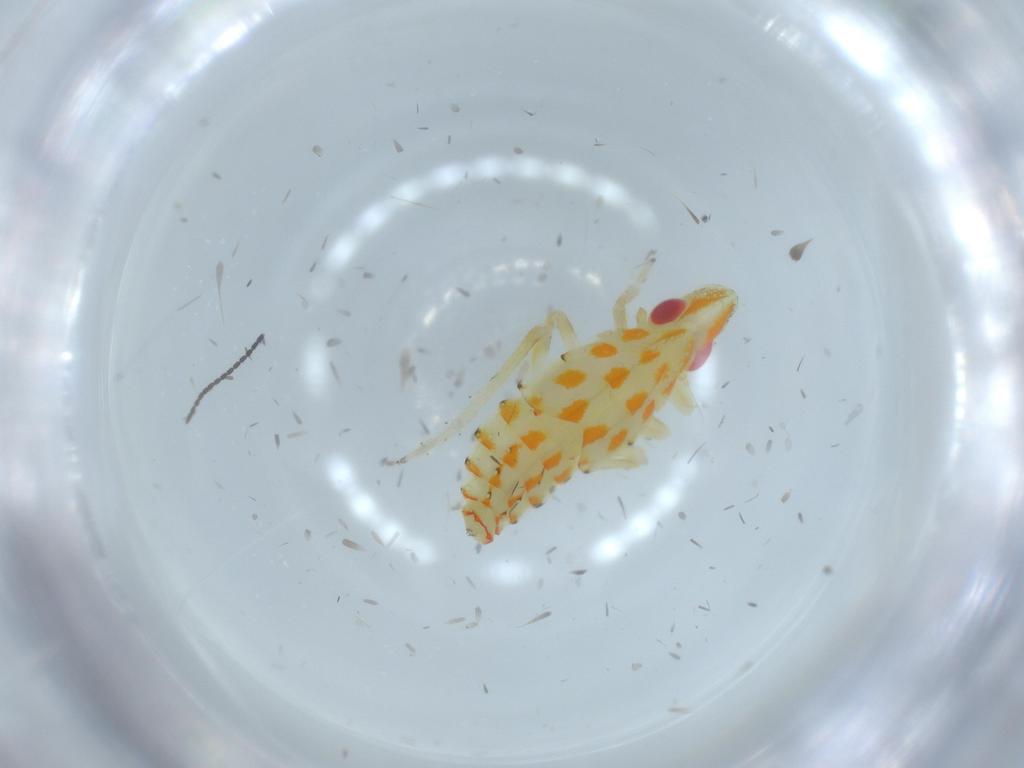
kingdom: Animalia
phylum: Arthropoda
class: Insecta
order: Hemiptera
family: Tropiduchidae
